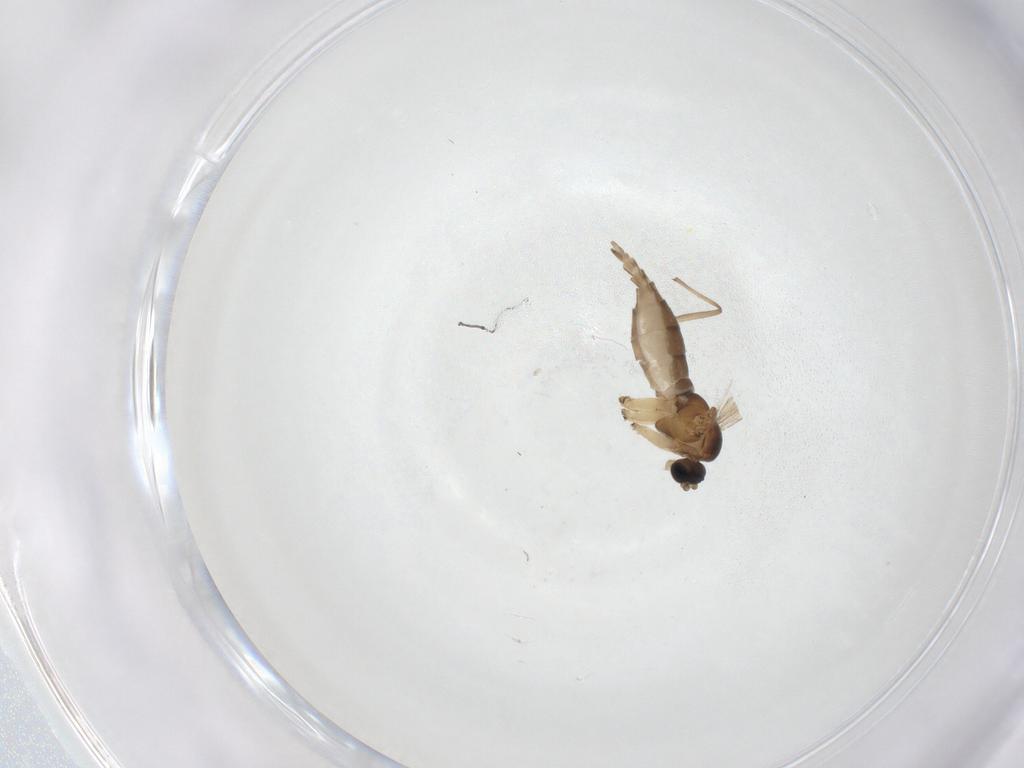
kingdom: Animalia
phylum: Arthropoda
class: Insecta
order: Diptera
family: Sciaridae
